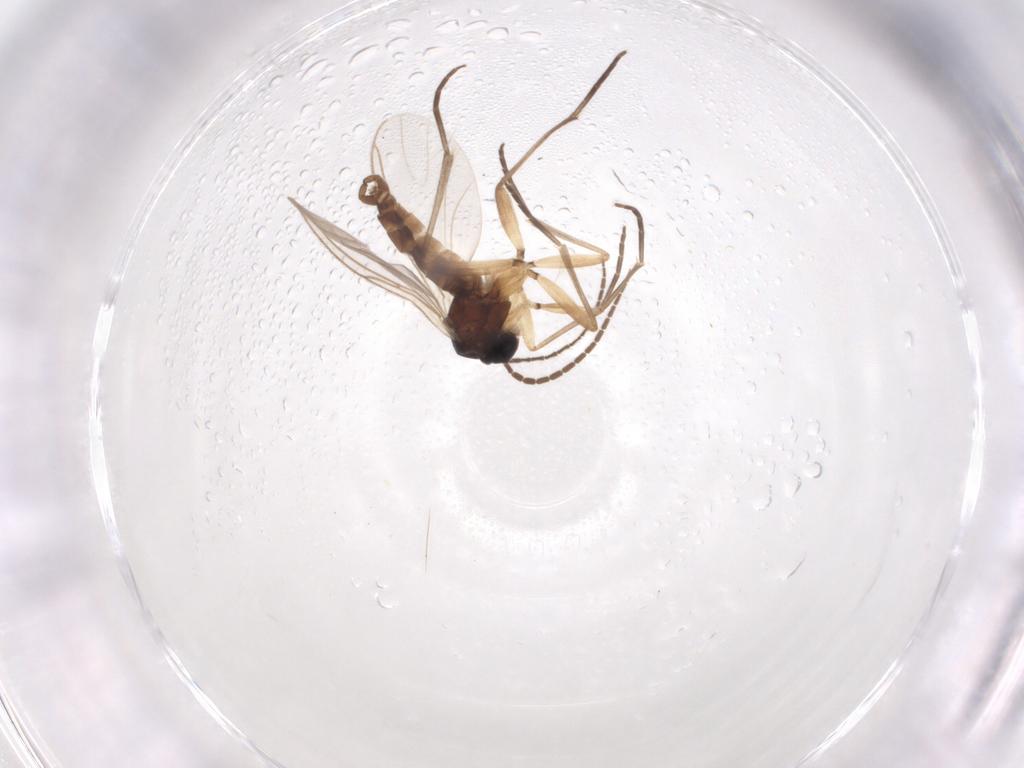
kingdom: Animalia
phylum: Arthropoda
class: Insecta
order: Diptera
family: Sciaridae
